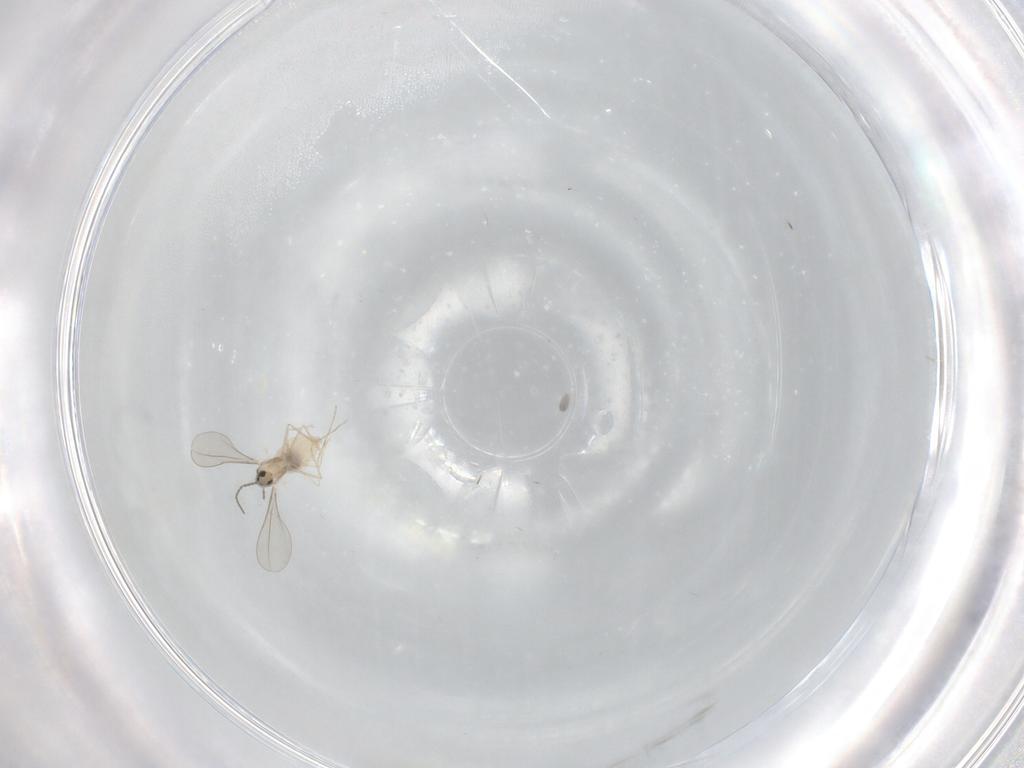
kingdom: Animalia
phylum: Arthropoda
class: Insecta
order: Diptera
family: Cecidomyiidae
